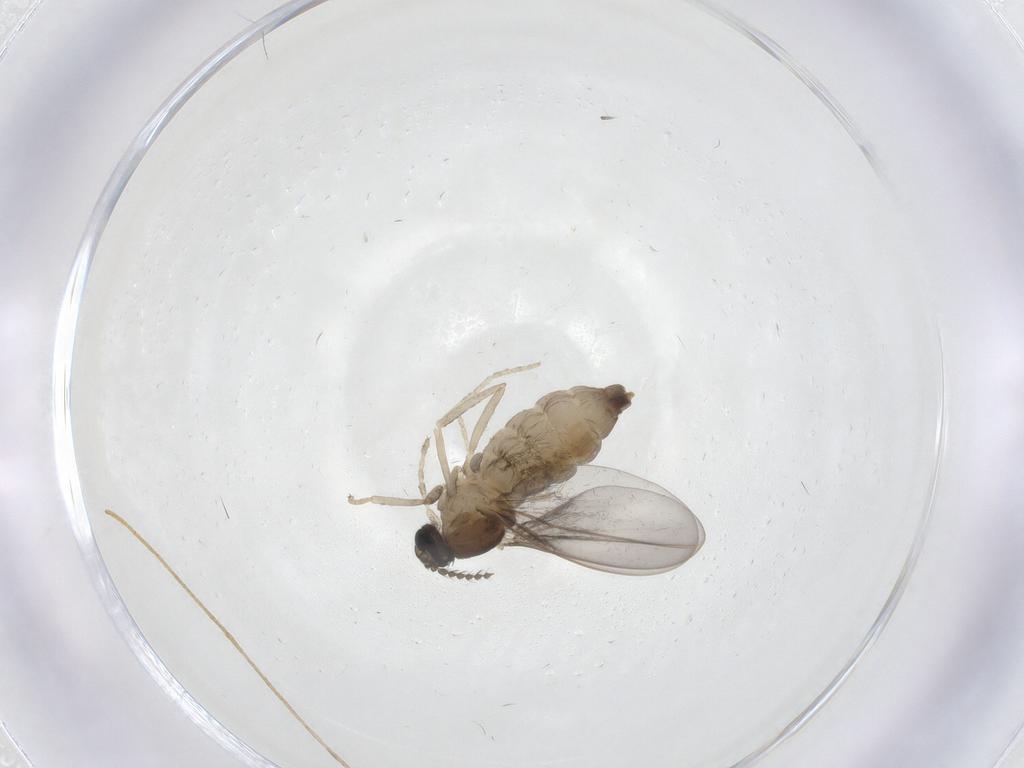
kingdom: Animalia
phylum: Arthropoda
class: Insecta
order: Diptera
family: Cecidomyiidae
